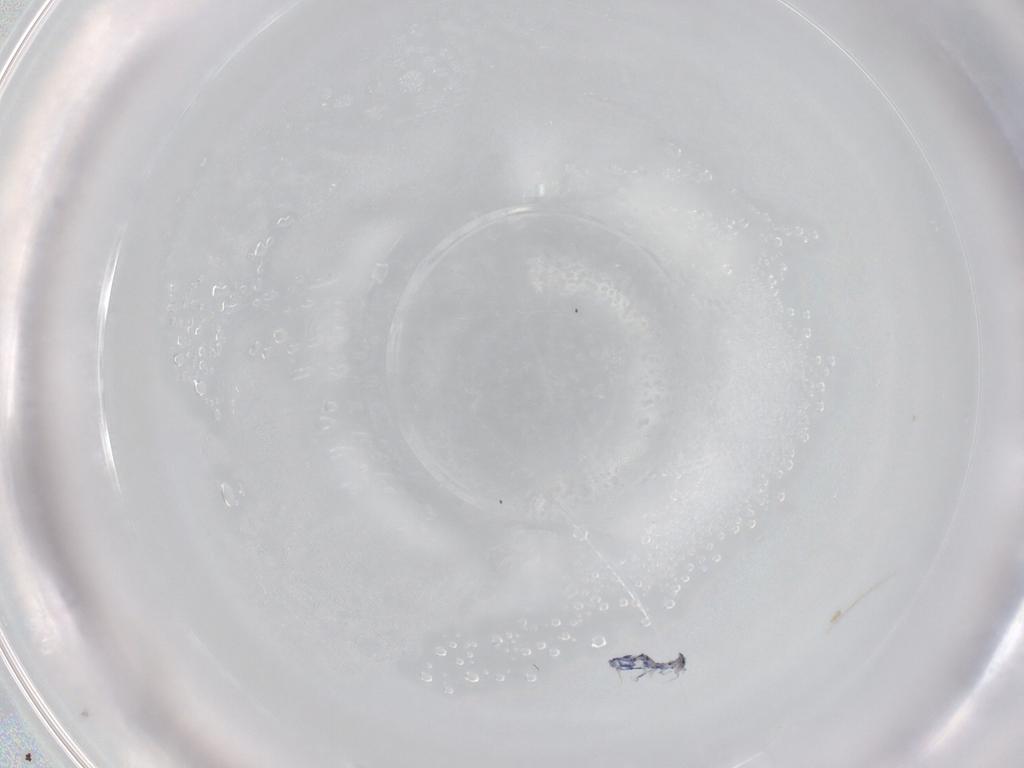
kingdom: Animalia
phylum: Arthropoda
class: Collembola
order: Entomobryomorpha
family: Entomobryidae
